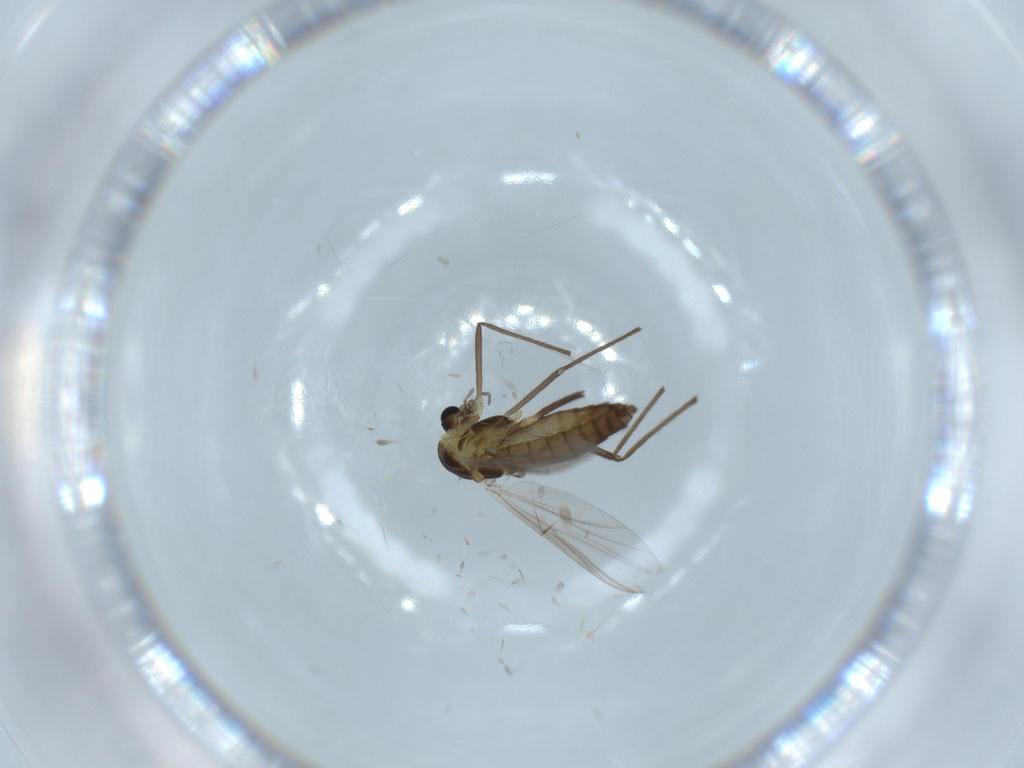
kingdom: Animalia
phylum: Arthropoda
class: Insecta
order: Diptera
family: Chironomidae
